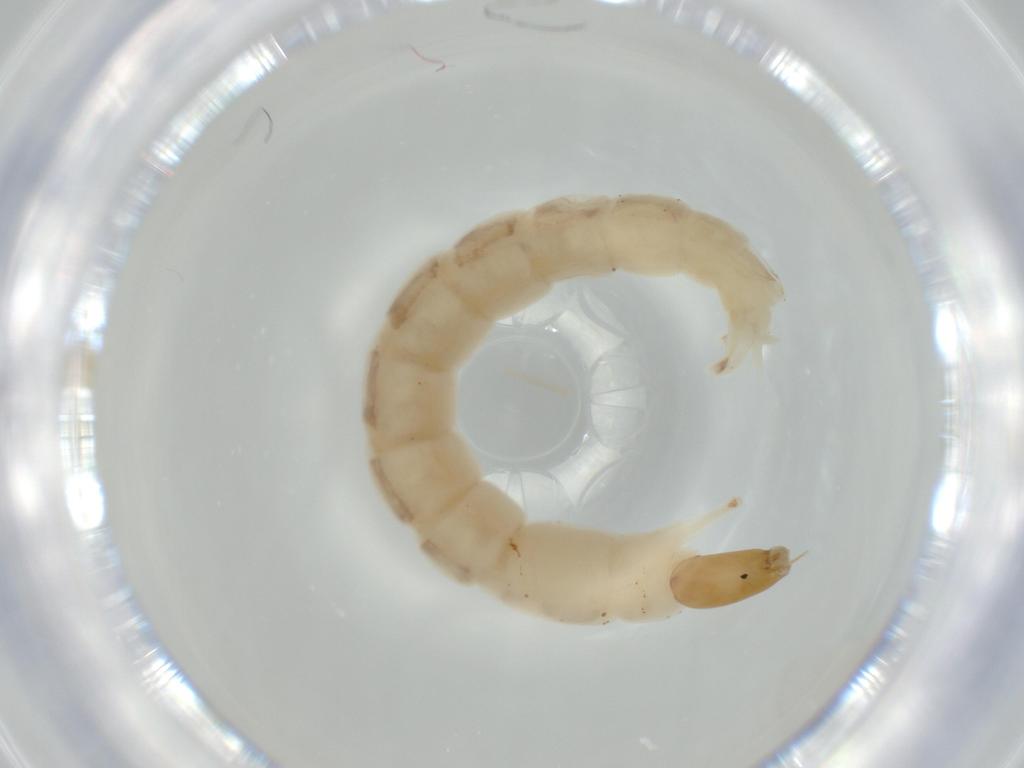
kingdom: Animalia
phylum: Arthropoda
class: Insecta
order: Diptera
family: Chironomidae
